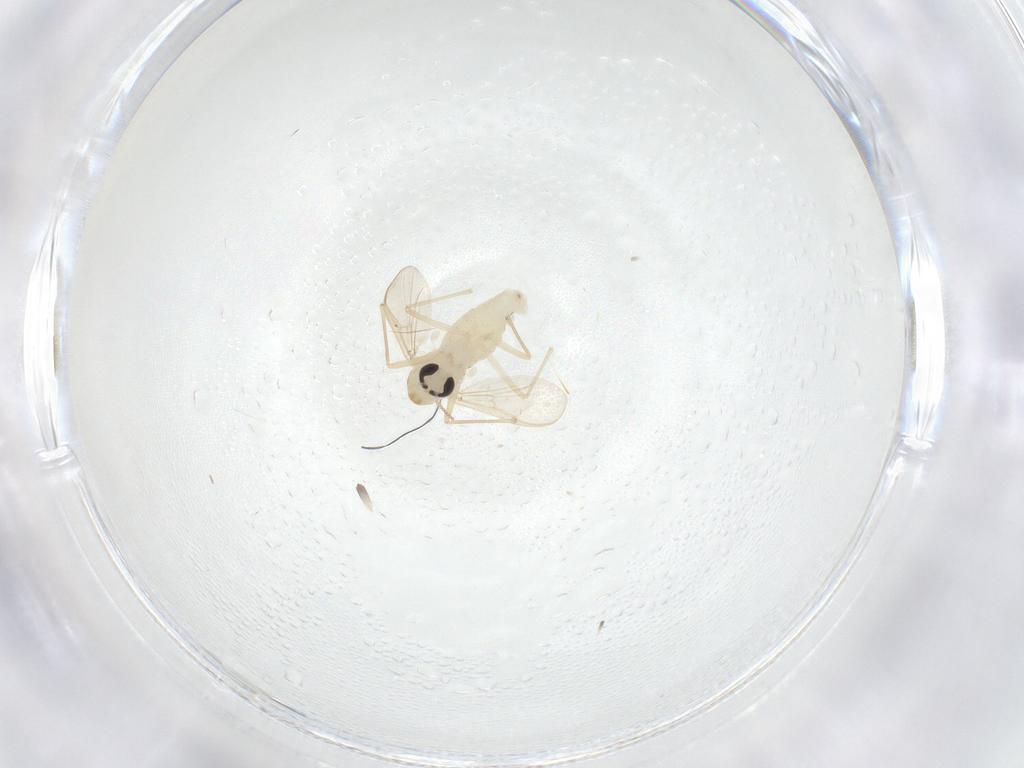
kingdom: Animalia
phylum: Arthropoda
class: Insecta
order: Diptera
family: Chironomidae
